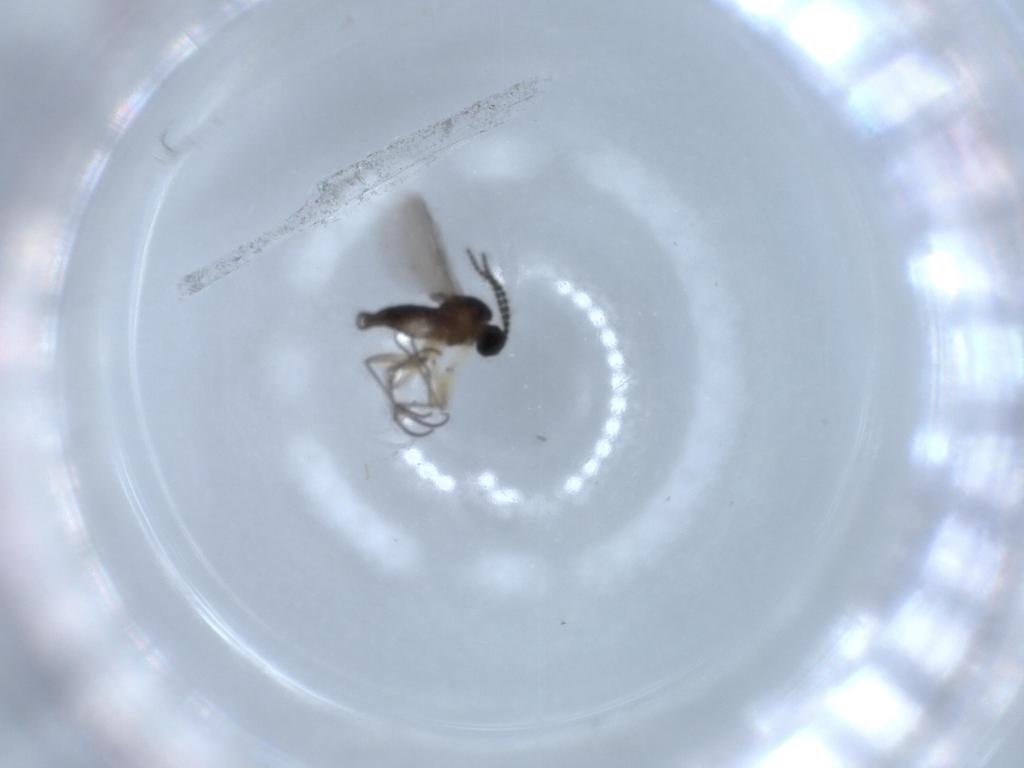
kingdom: Animalia
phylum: Arthropoda
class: Insecta
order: Diptera
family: Sciaridae
